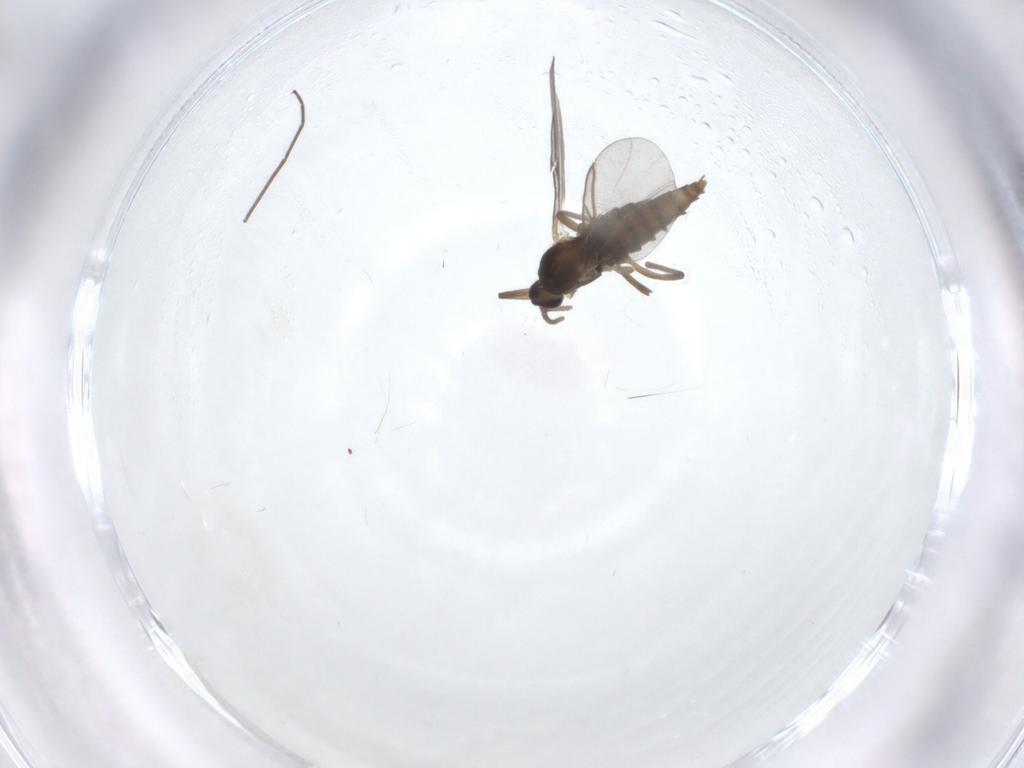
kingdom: Animalia
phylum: Arthropoda
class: Insecta
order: Diptera
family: Cecidomyiidae
